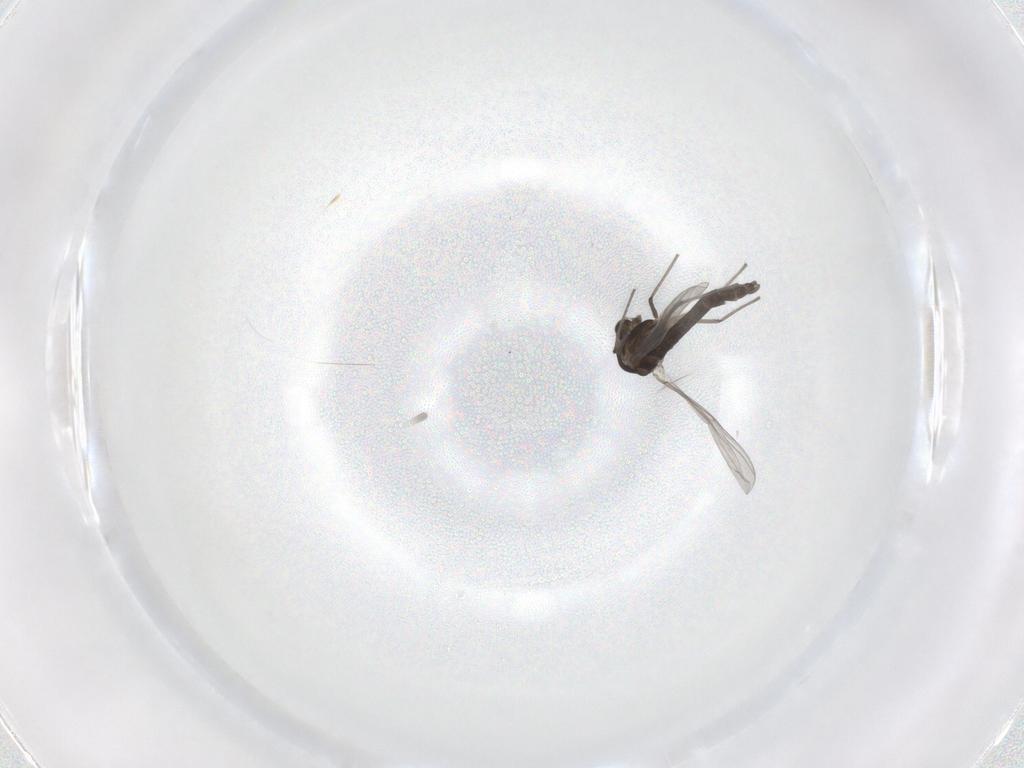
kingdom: Animalia
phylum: Arthropoda
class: Insecta
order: Diptera
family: Chironomidae
